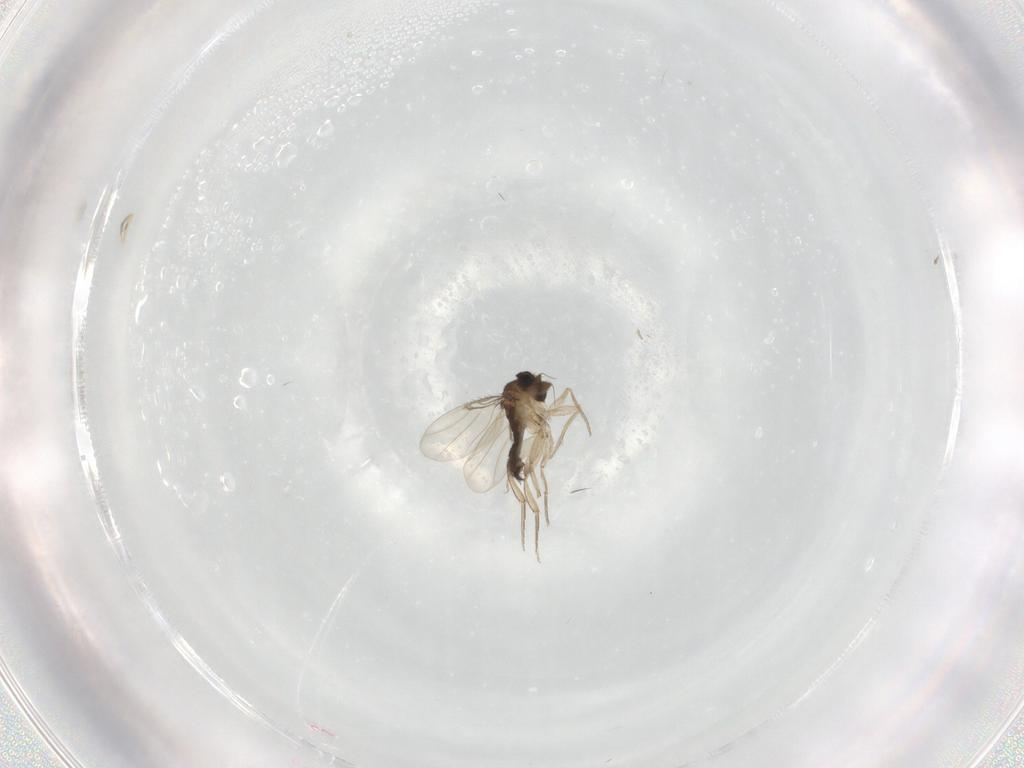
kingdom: Animalia
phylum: Arthropoda
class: Insecta
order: Diptera
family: Phoridae
